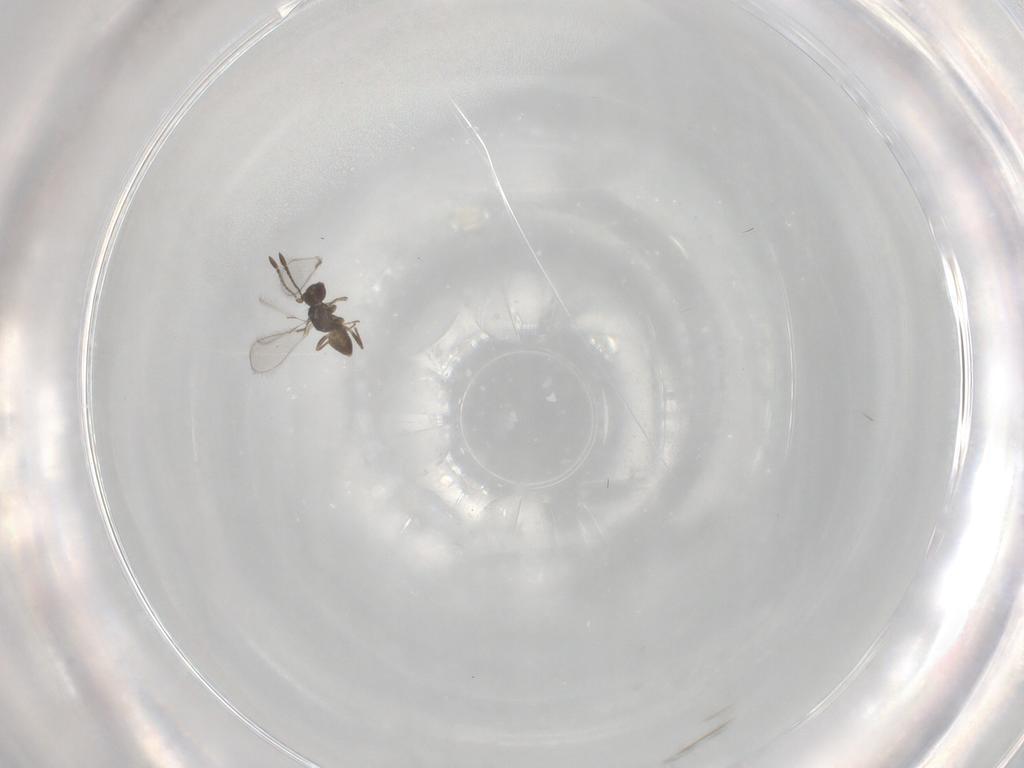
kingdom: Animalia
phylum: Arthropoda
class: Insecta
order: Hymenoptera
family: Mymaridae
